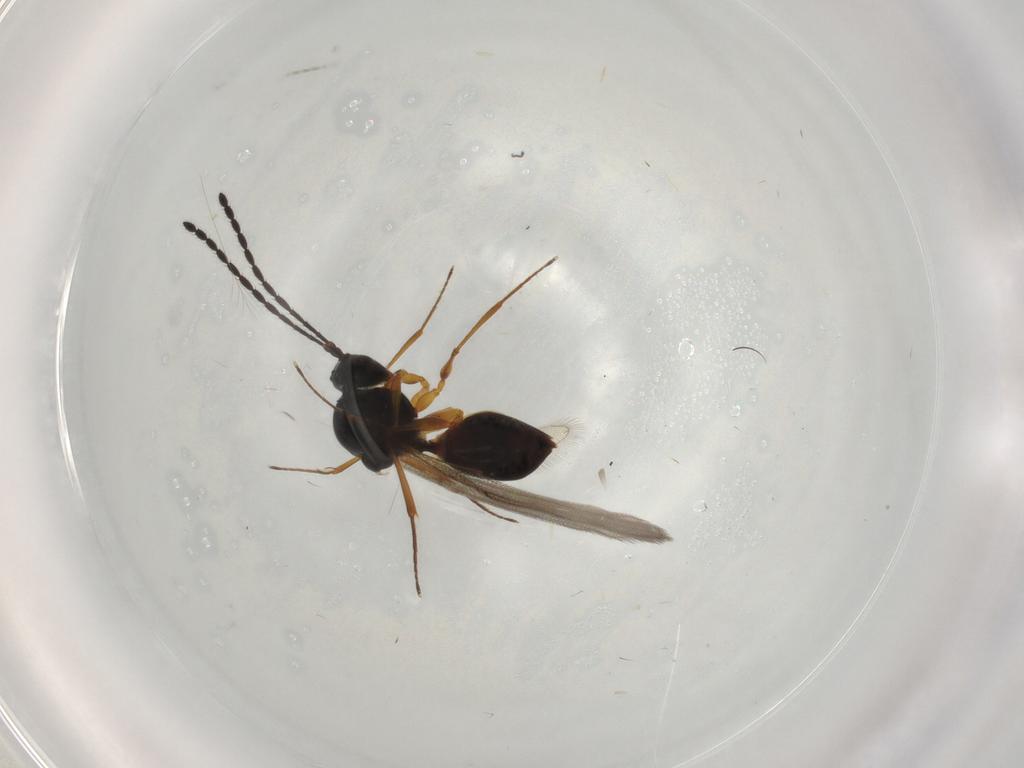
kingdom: Animalia
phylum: Arthropoda
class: Insecta
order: Hymenoptera
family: Figitidae
